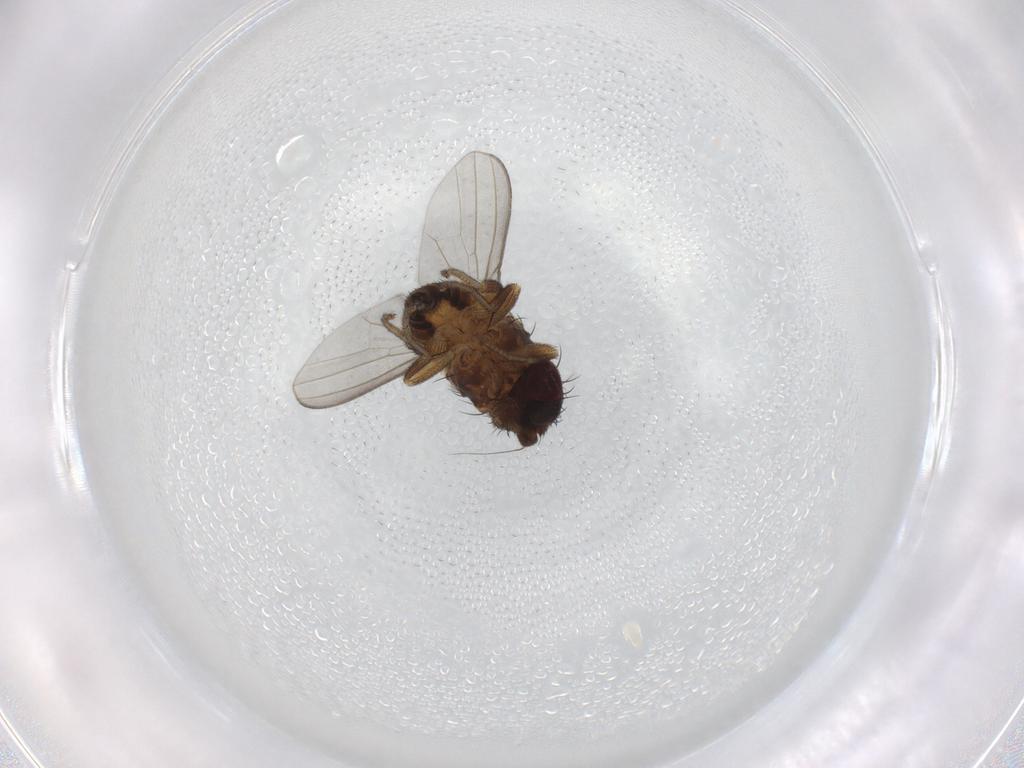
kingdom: Animalia
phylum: Arthropoda
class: Insecta
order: Diptera
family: Milichiidae
